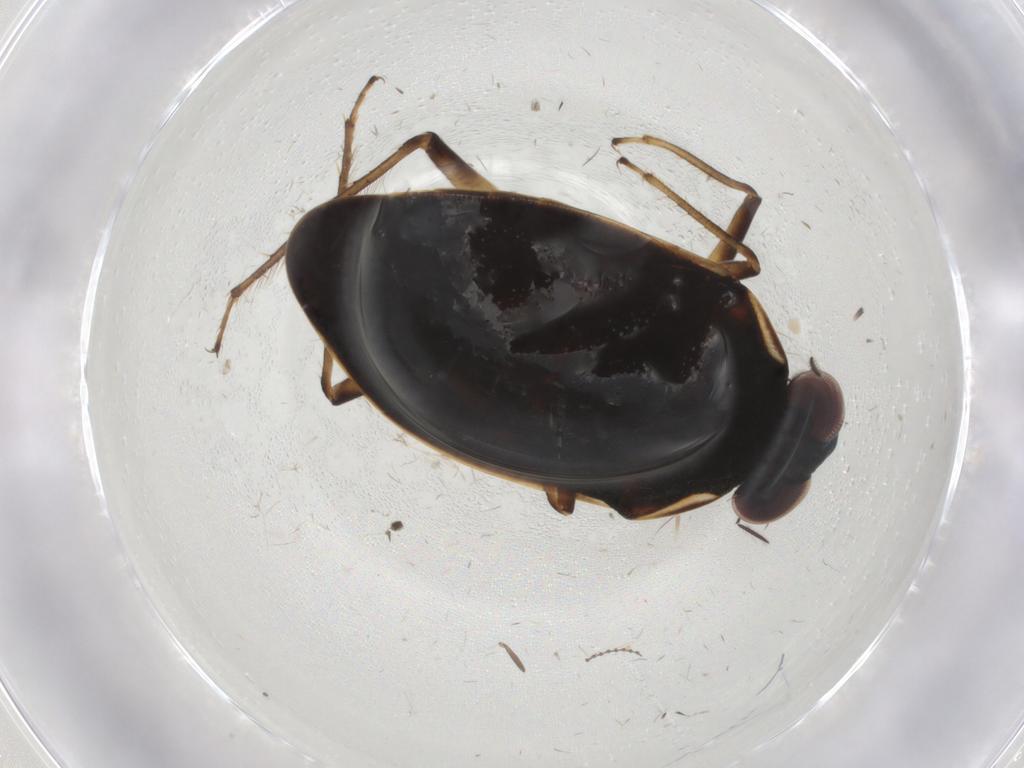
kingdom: Animalia
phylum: Arthropoda
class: Insecta
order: Hemiptera
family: Ochteridae
